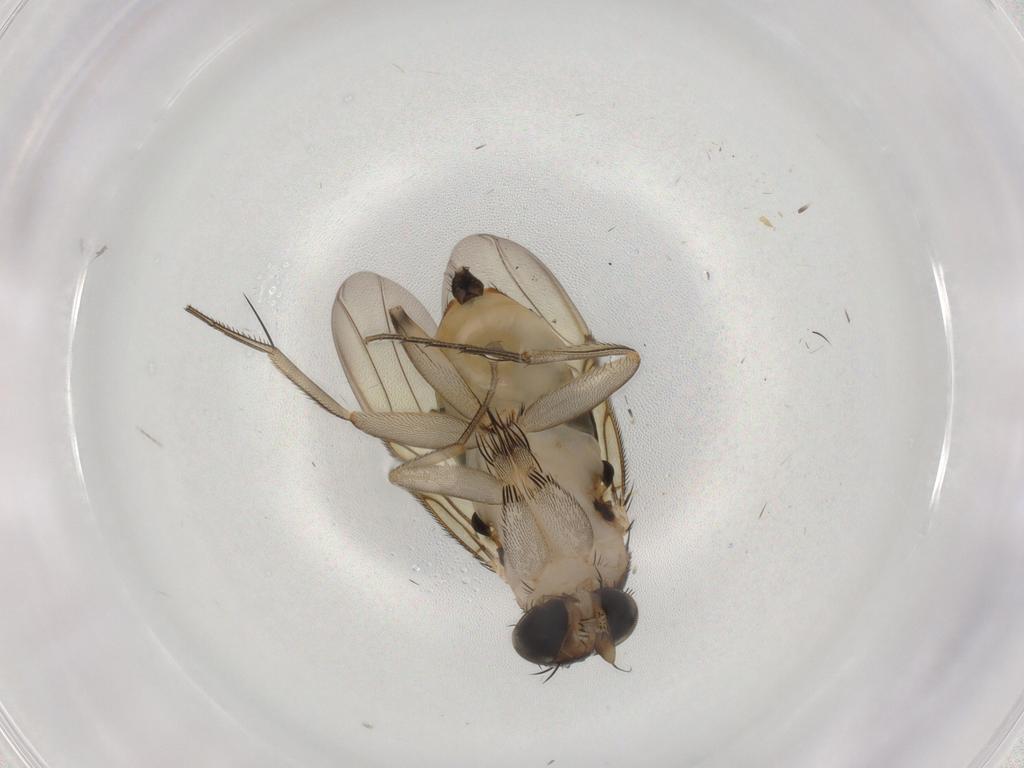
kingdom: Animalia
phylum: Arthropoda
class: Insecta
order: Diptera
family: Phoridae
